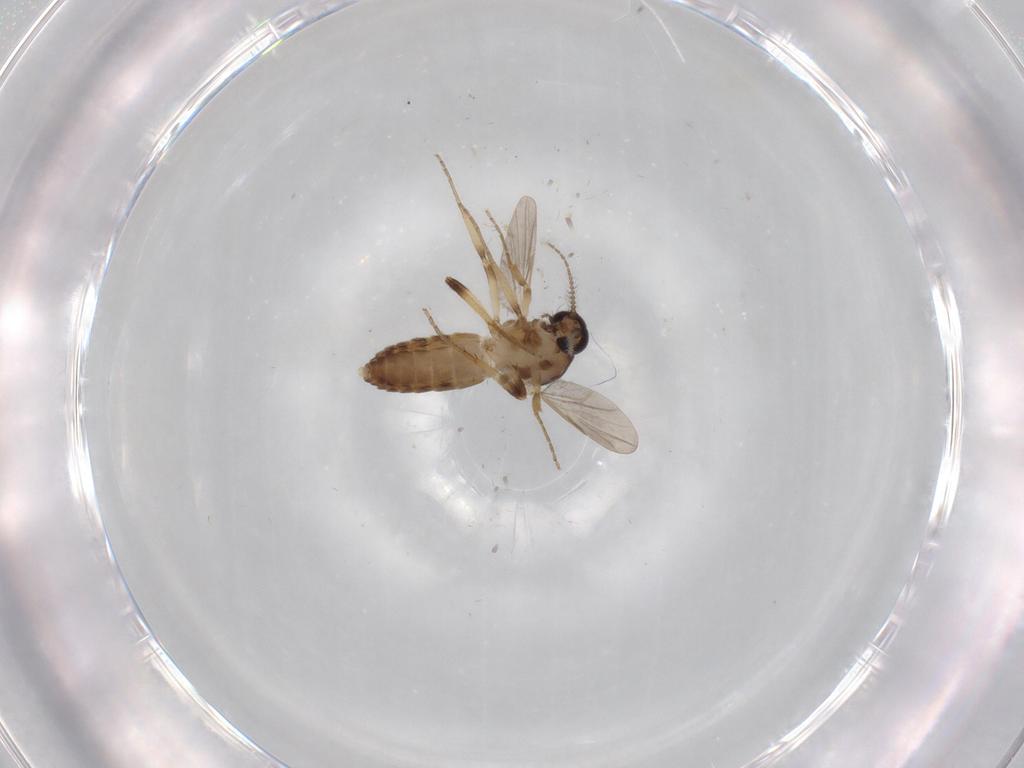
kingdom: Animalia
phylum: Arthropoda
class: Insecta
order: Diptera
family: Ceratopogonidae
